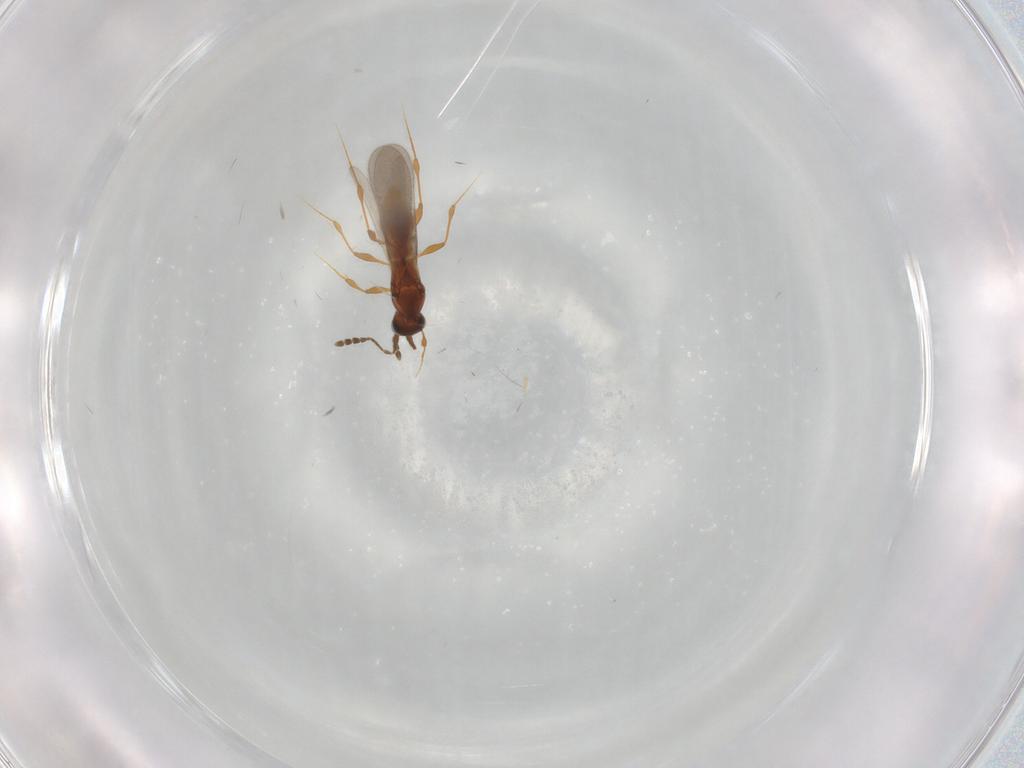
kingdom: Animalia
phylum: Arthropoda
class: Insecta
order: Hymenoptera
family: Platygastridae
